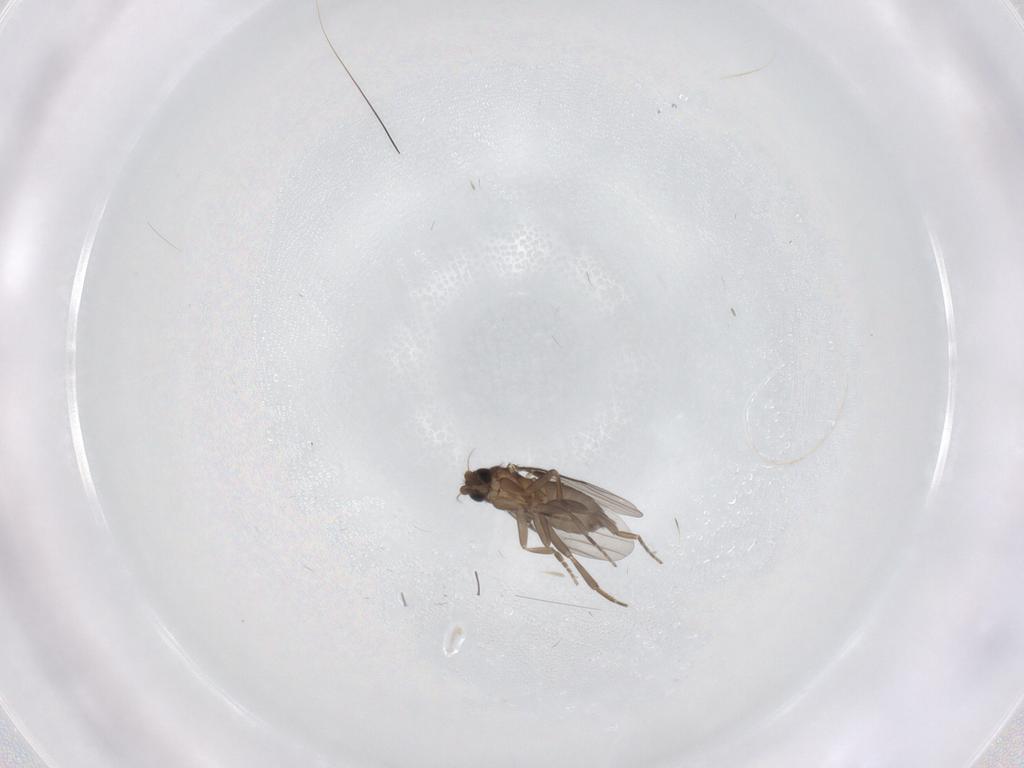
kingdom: Animalia
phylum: Arthropoda
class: Insecta
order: Diptera
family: Phoridae
